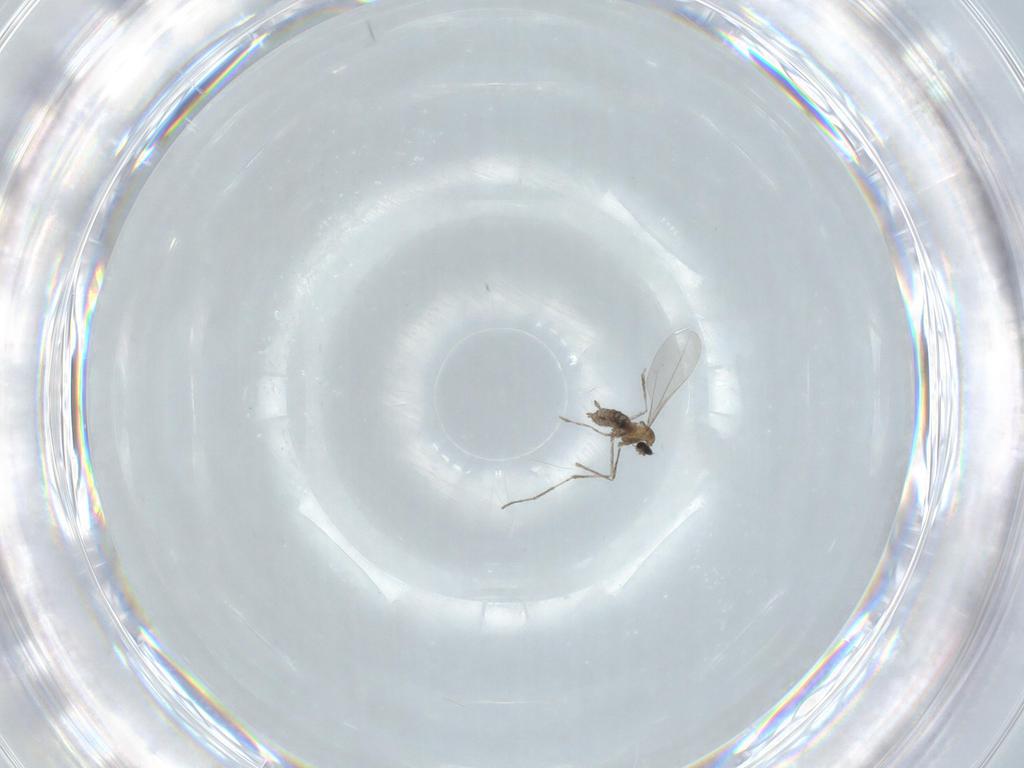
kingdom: Animalia
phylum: Arthropoda
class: Insecta
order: Diptera
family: Cecidomyiidae
